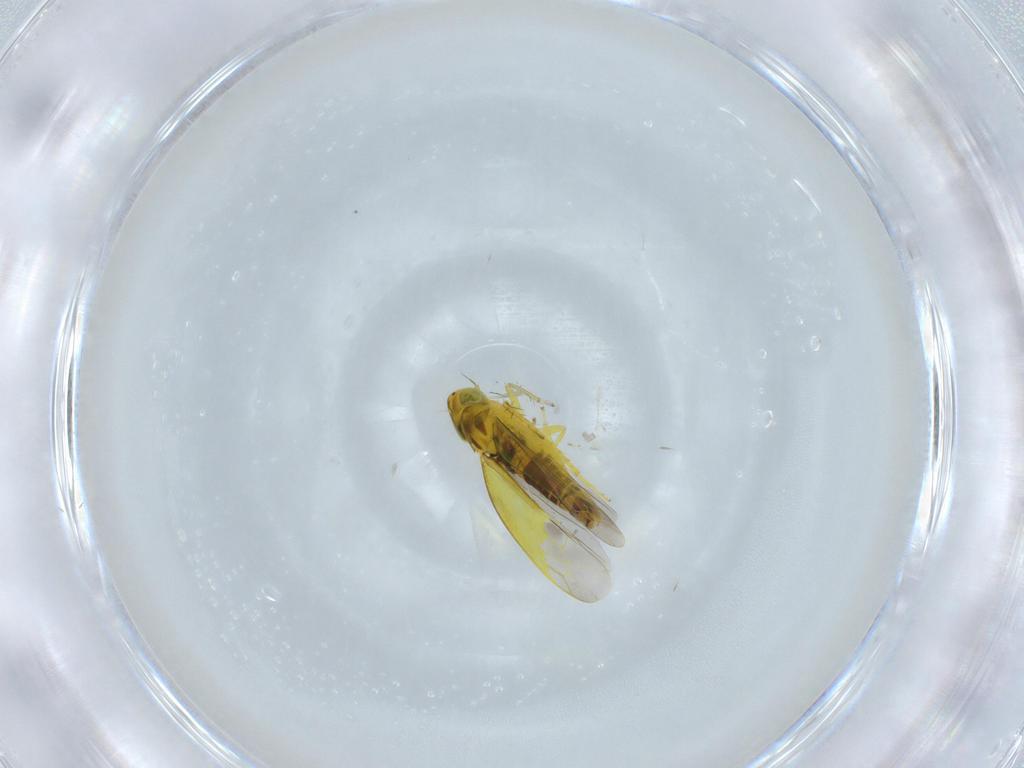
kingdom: Animalia
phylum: Arthropoda
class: Insecta
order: Hemiptera
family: Cicadellidae
